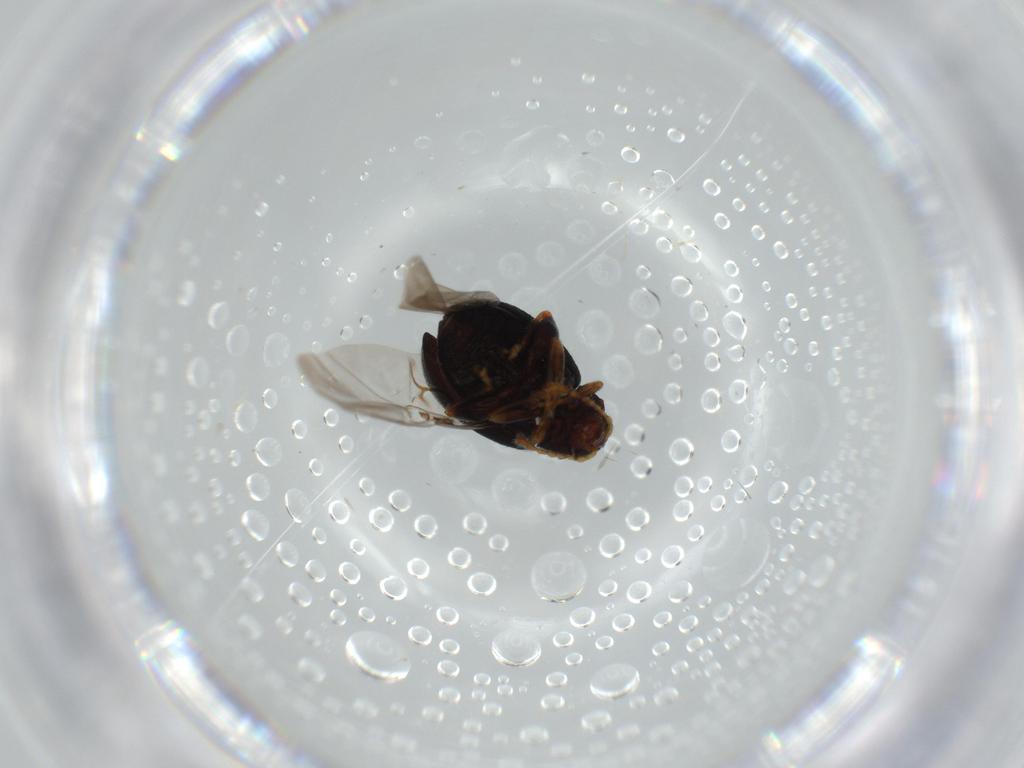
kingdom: Animalia
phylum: Arthropoda
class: Insecta
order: Coleoptera
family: Chrysomelidae
